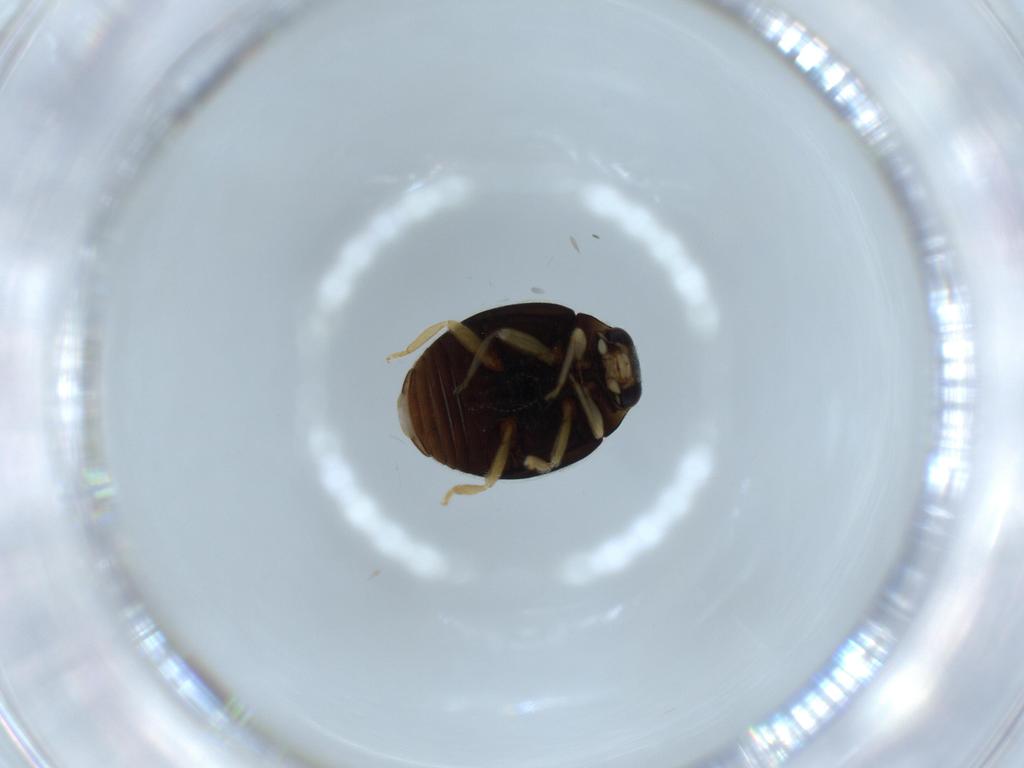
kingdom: Animalia
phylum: Arthropoda
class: Insecta
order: Coleoptera
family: Coccinellidae
